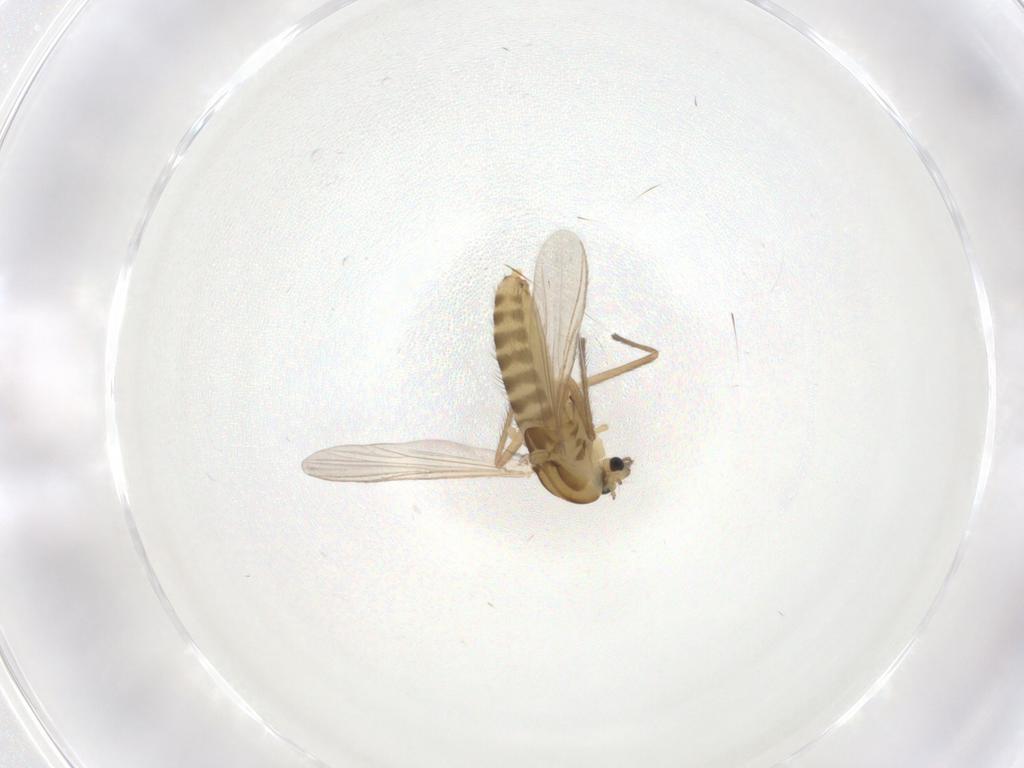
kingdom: Animalia
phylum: Arthropoda
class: Insecta
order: Diptera
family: Chironomidae
